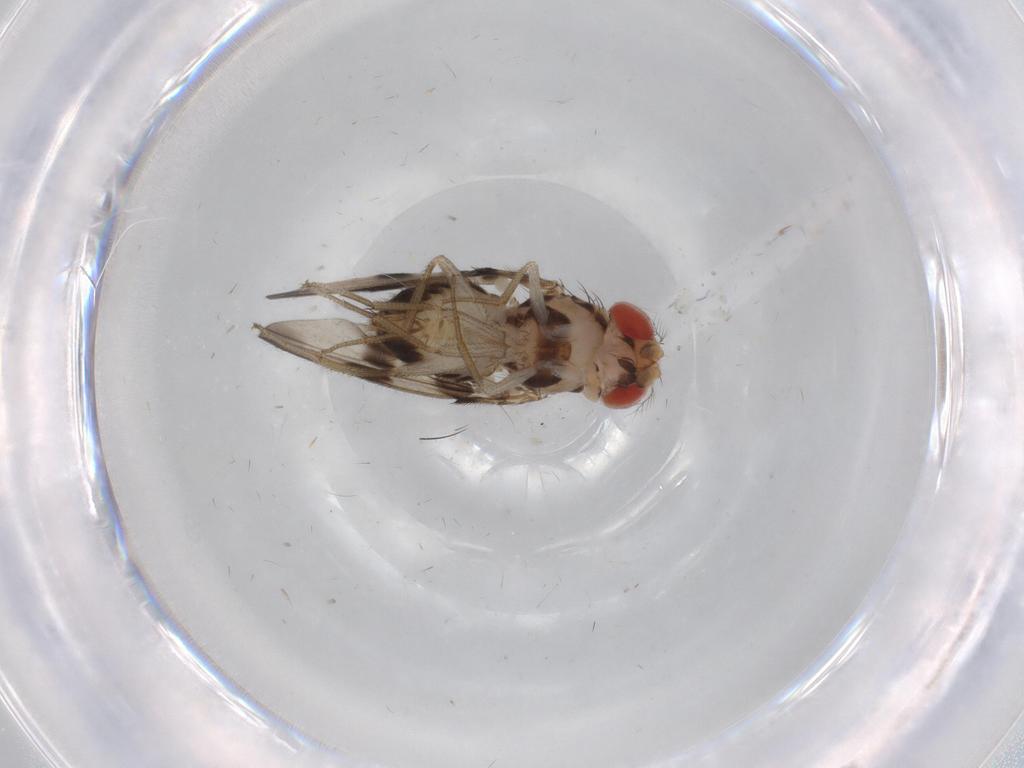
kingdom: Animalia
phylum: Arthropoda
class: Insecta
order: Diptera
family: Drosophilidae
